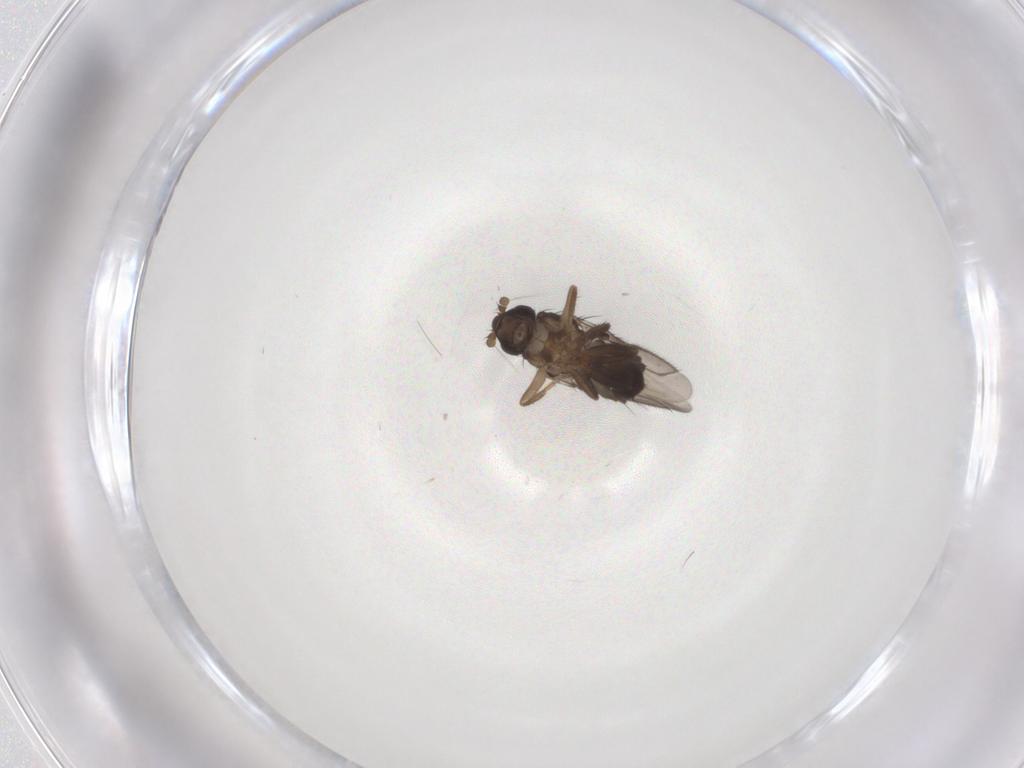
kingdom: Animalia
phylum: Arthropoda
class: Insecta
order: Diptera
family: Sphaeroceridae
